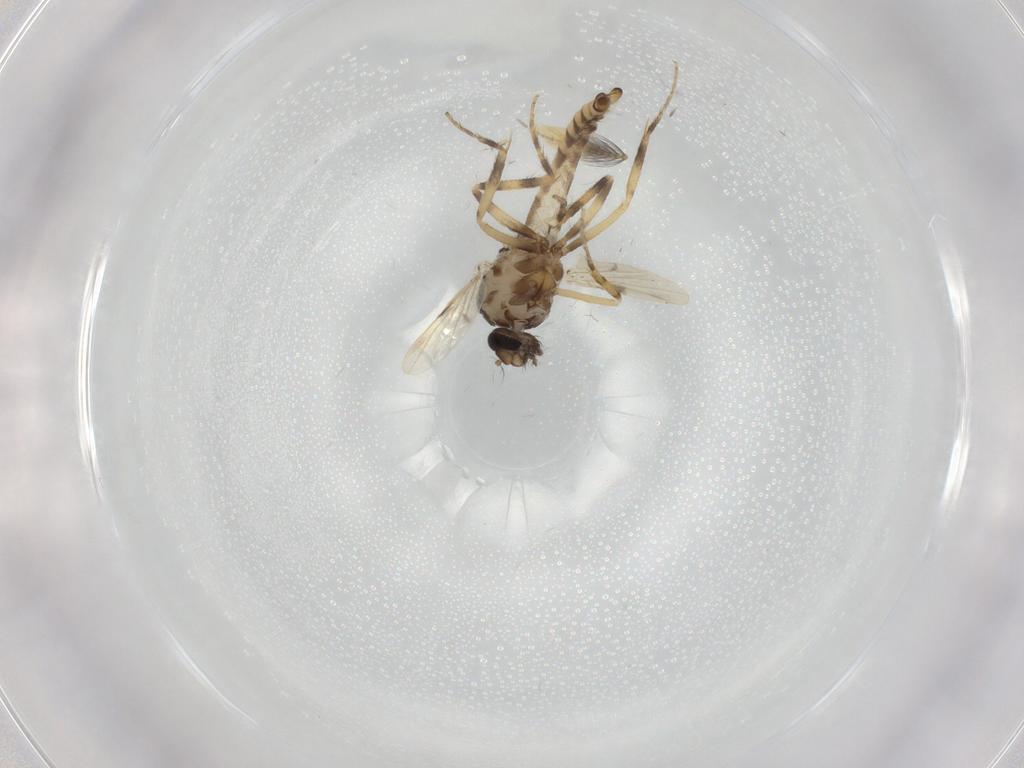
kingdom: Animalia
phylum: Arthropoda
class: Insecta
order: Diptera
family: Ceratopogonidae
